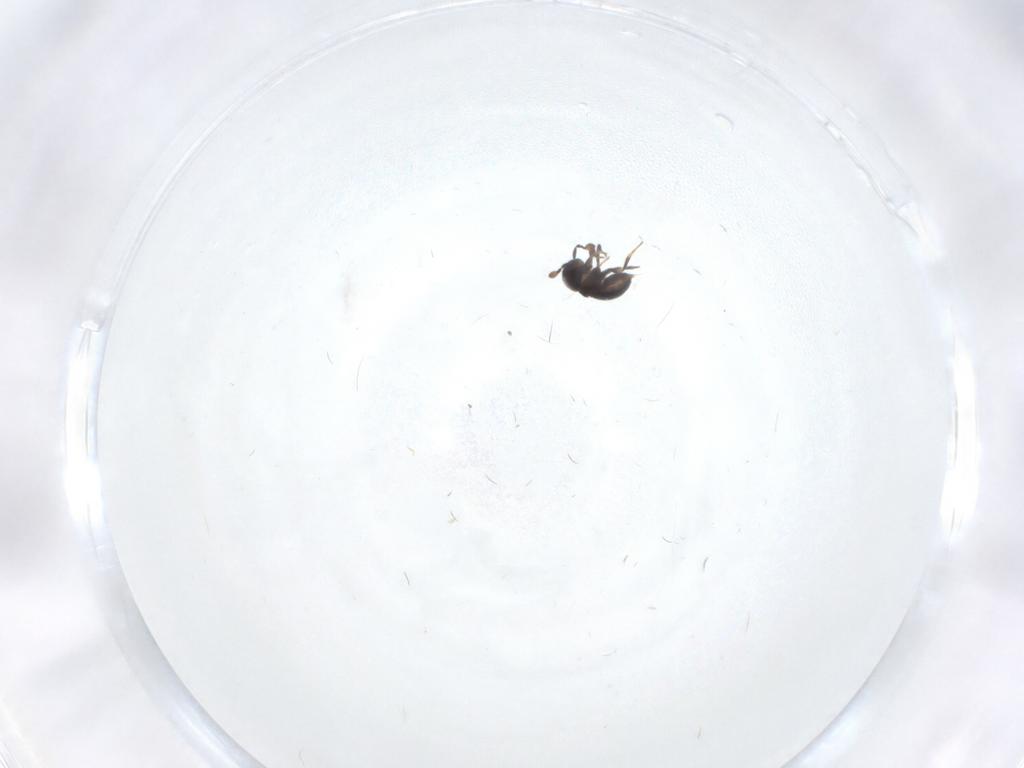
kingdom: Animalia
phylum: Arthropoda
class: Insecta
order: Hymenoptera
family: Scelionidae
